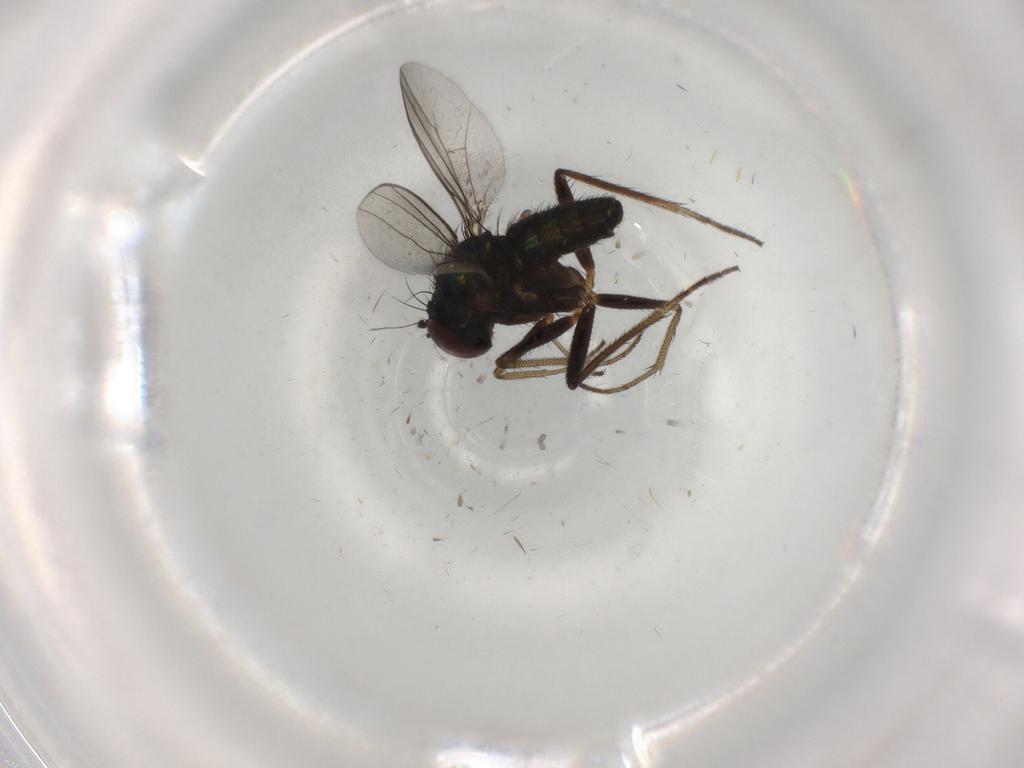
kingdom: Animalia
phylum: Arthropoda
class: Insecta
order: Diptera
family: Dolichopodidae
